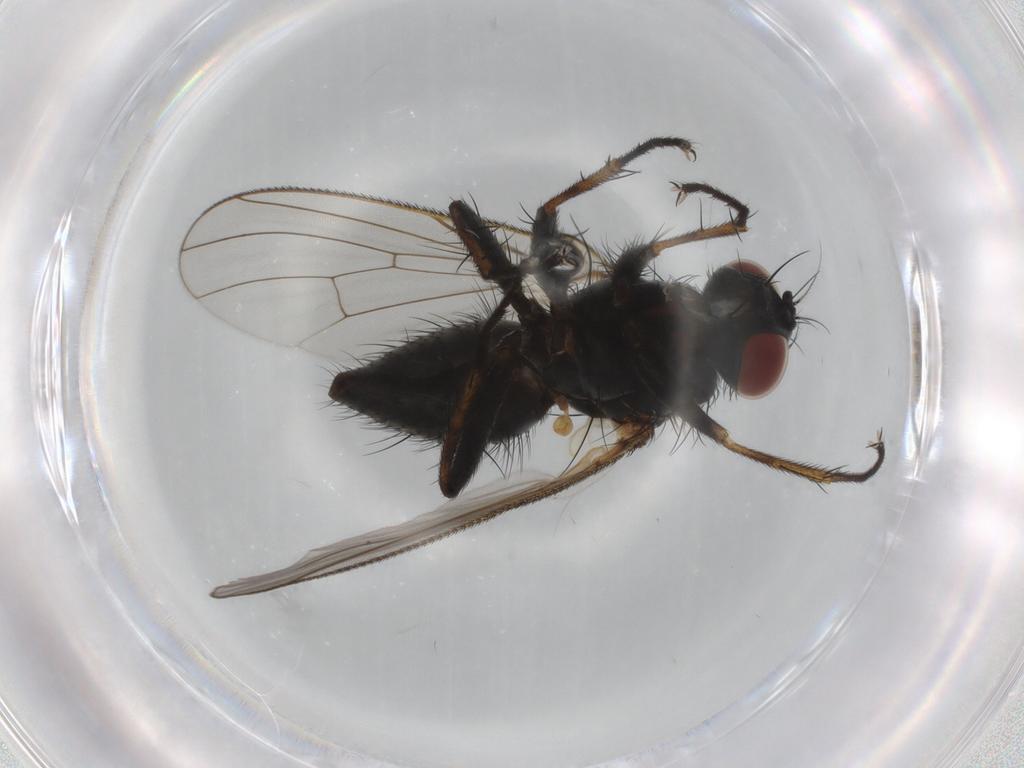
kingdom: Animalia
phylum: Arthropoda
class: Insecta
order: Diptera
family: Muscidae
